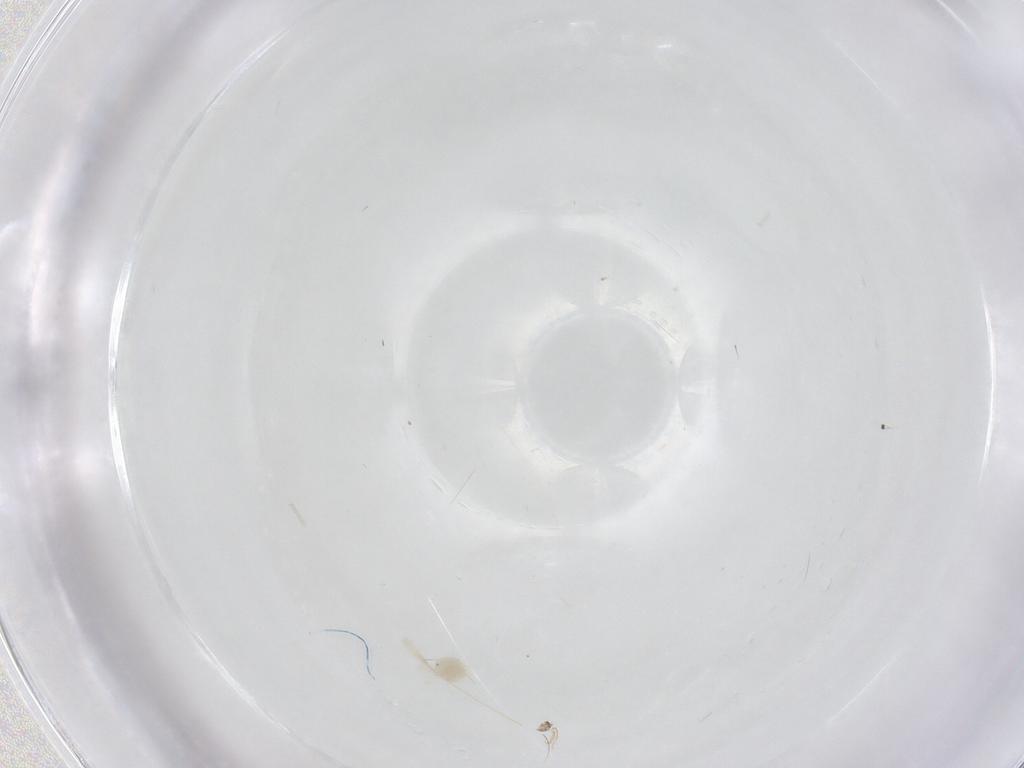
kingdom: Animalia
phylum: Arthropoda
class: Insecta
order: Diptera
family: Cecidomyiidae
